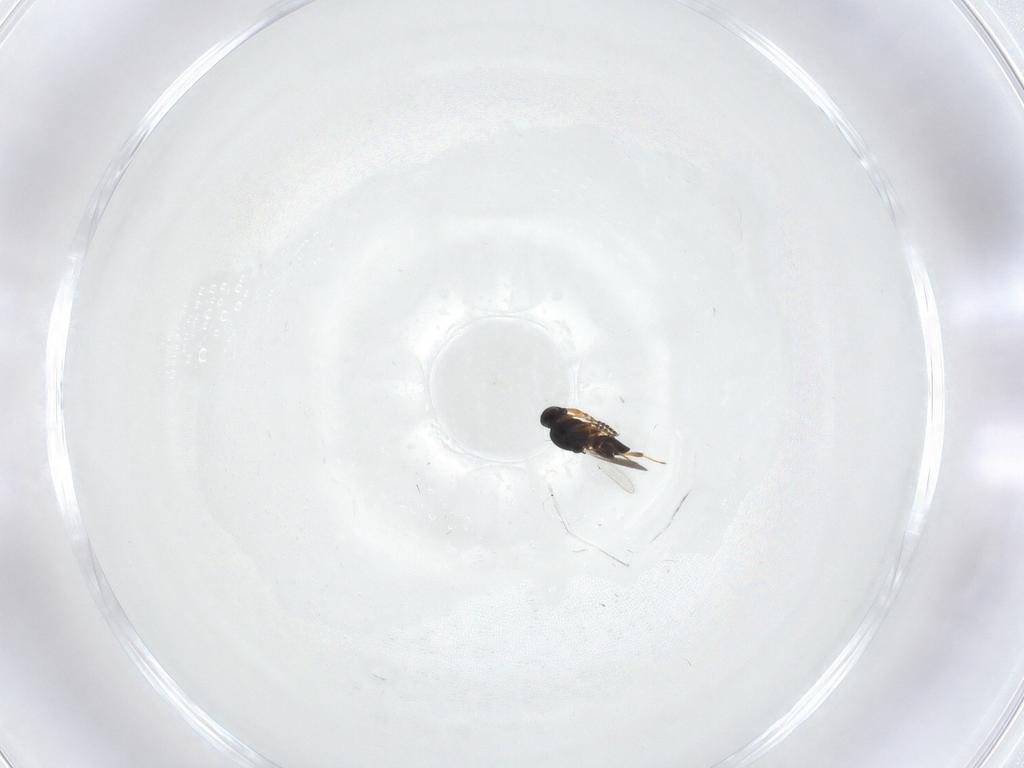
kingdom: Animalia
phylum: Arthropoda
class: Insecta
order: Hymenoptera
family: Platygastridae
